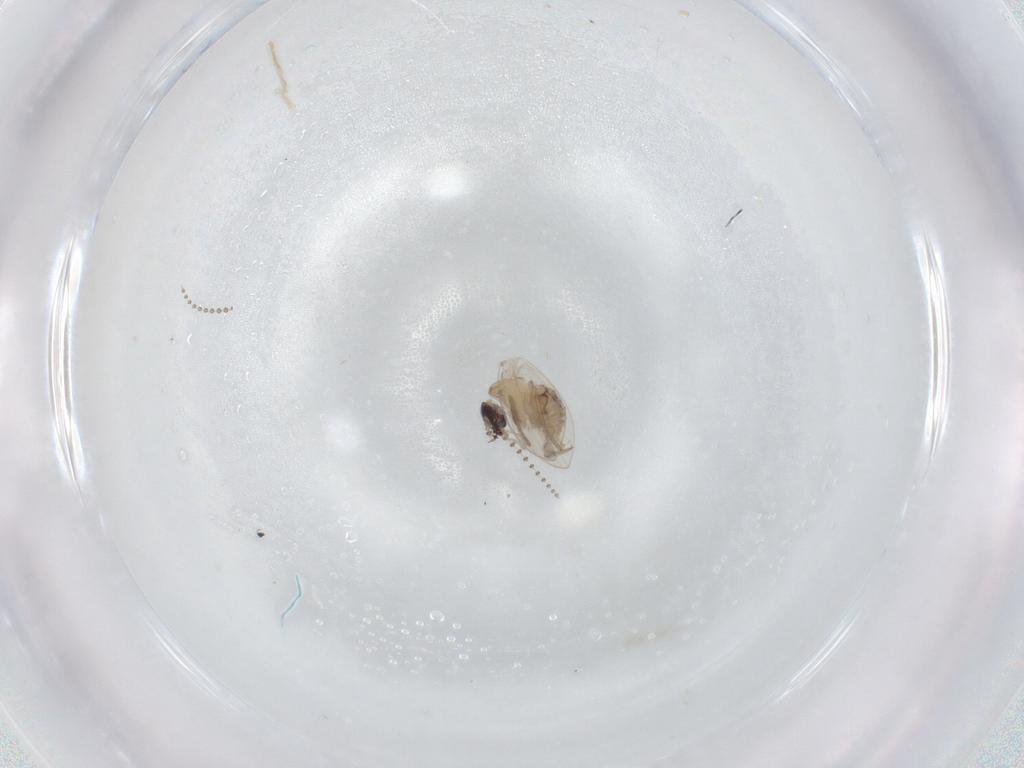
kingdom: Animalia
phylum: Arthropoda
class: Insecta
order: Diptera
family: Psychodidae
